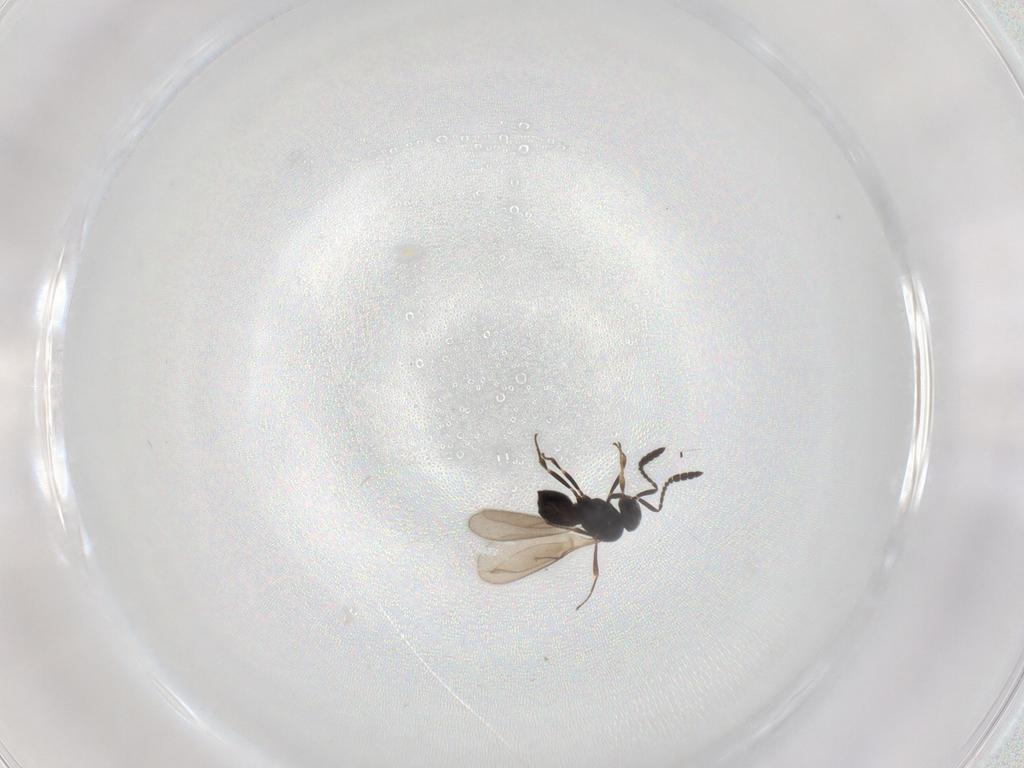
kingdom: Animalia
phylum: Arthropoda
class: Insecta
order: Hymenoptera
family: Scelionidae
